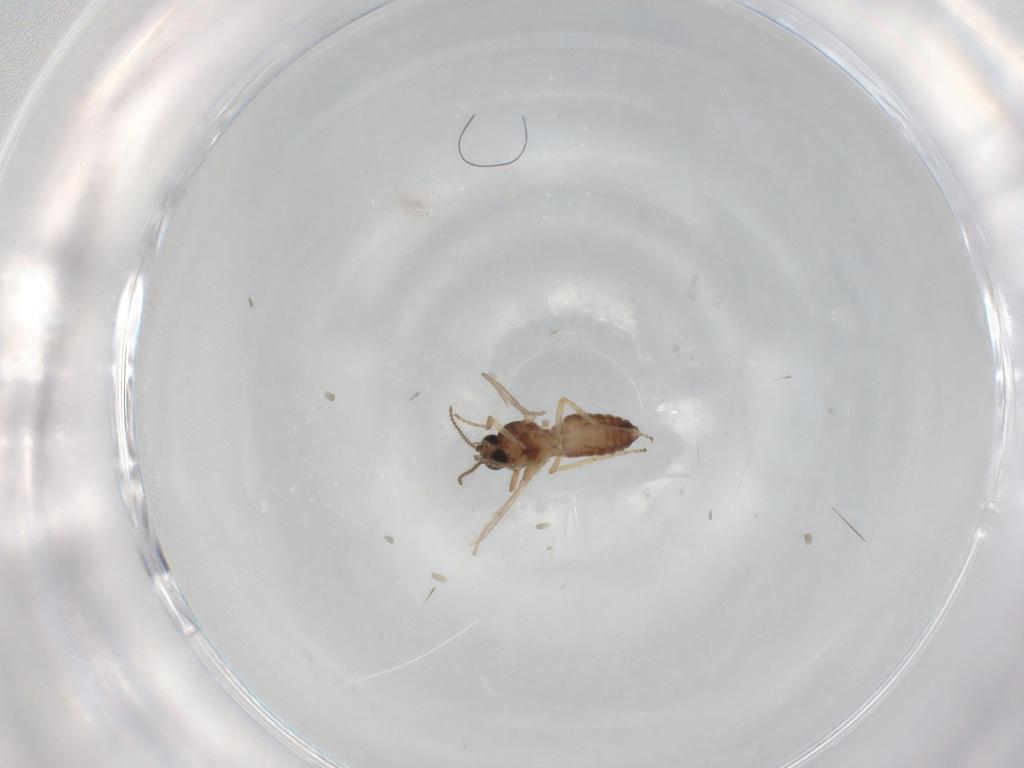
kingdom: Animalia
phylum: Arthropoda
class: Insecta
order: Diptera
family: Ceratopogonidae
